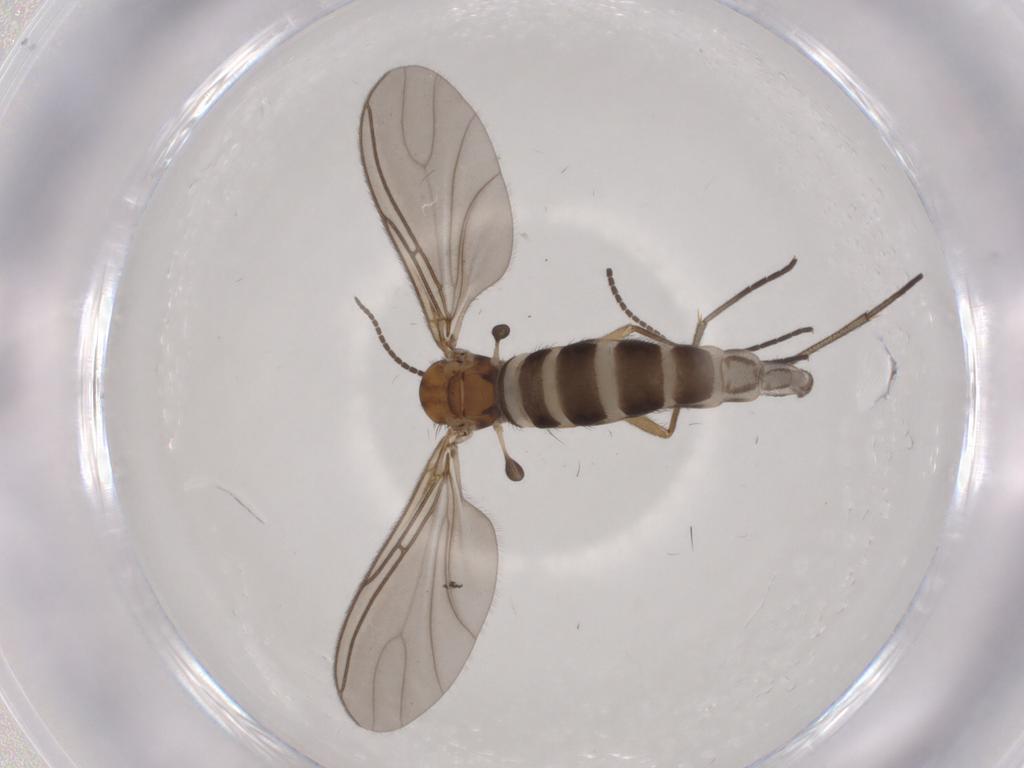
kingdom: Animalia
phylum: Arthropoda
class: Insecta
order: Diptera
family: Sciaridae
